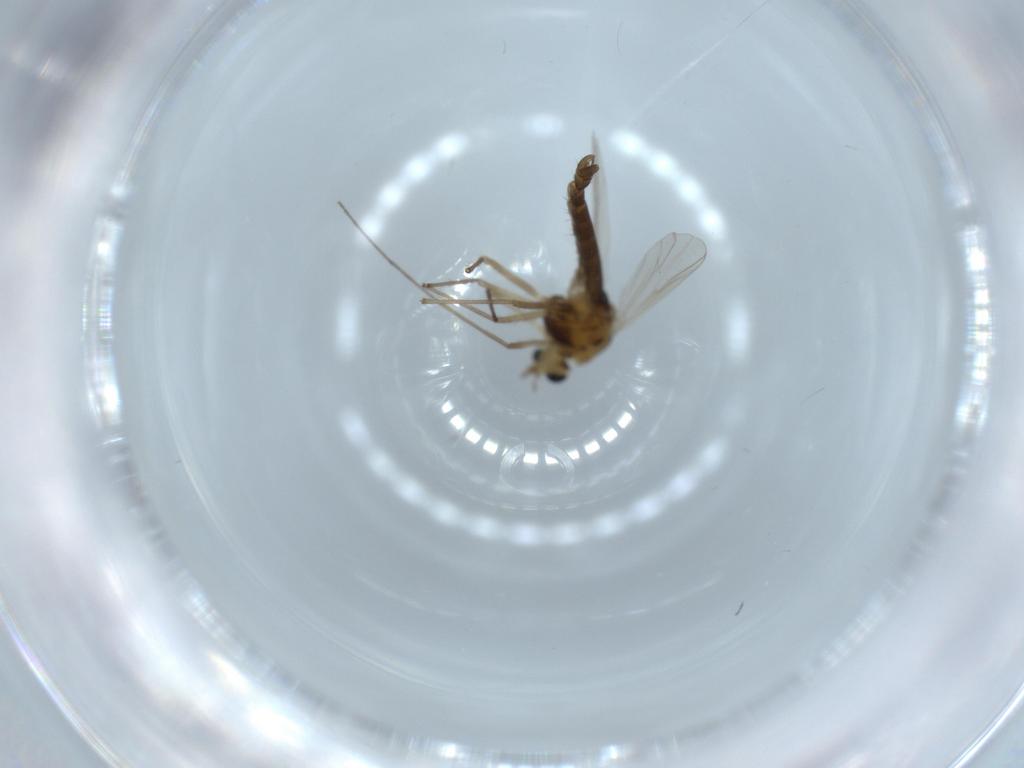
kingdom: Animalia
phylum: Arthropoda
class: Insecta
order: Diptera
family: Chironomidae
